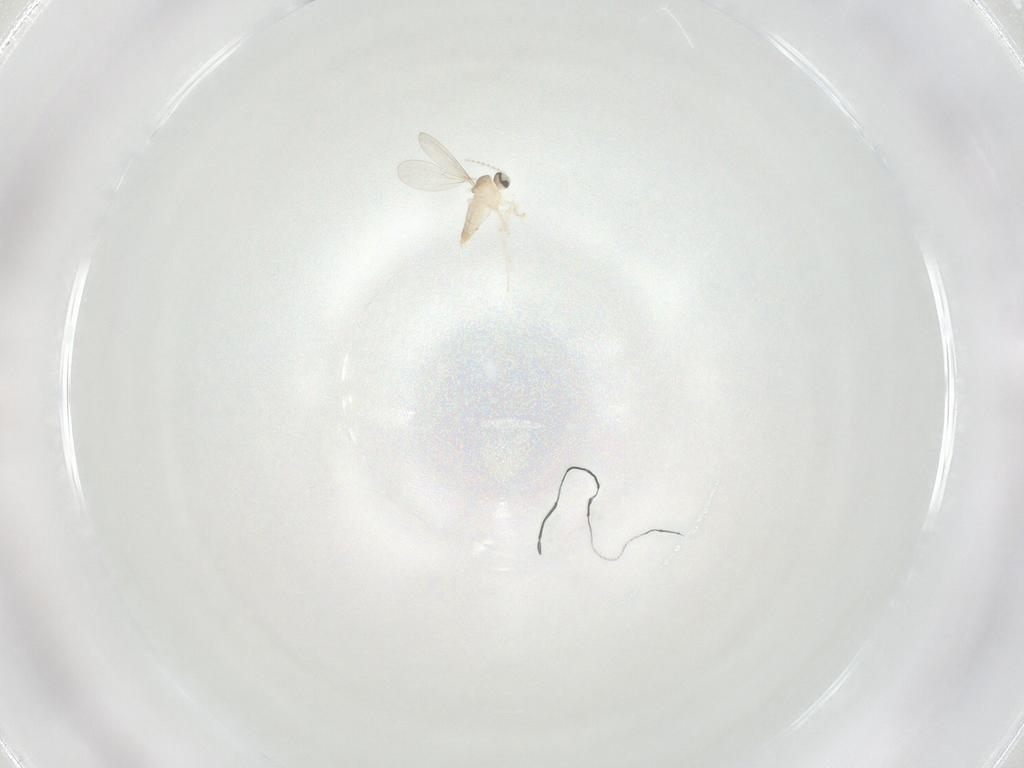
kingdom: Animalia
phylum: Arthropoda
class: Insecta
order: Diptera
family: Cecidomyiidae
